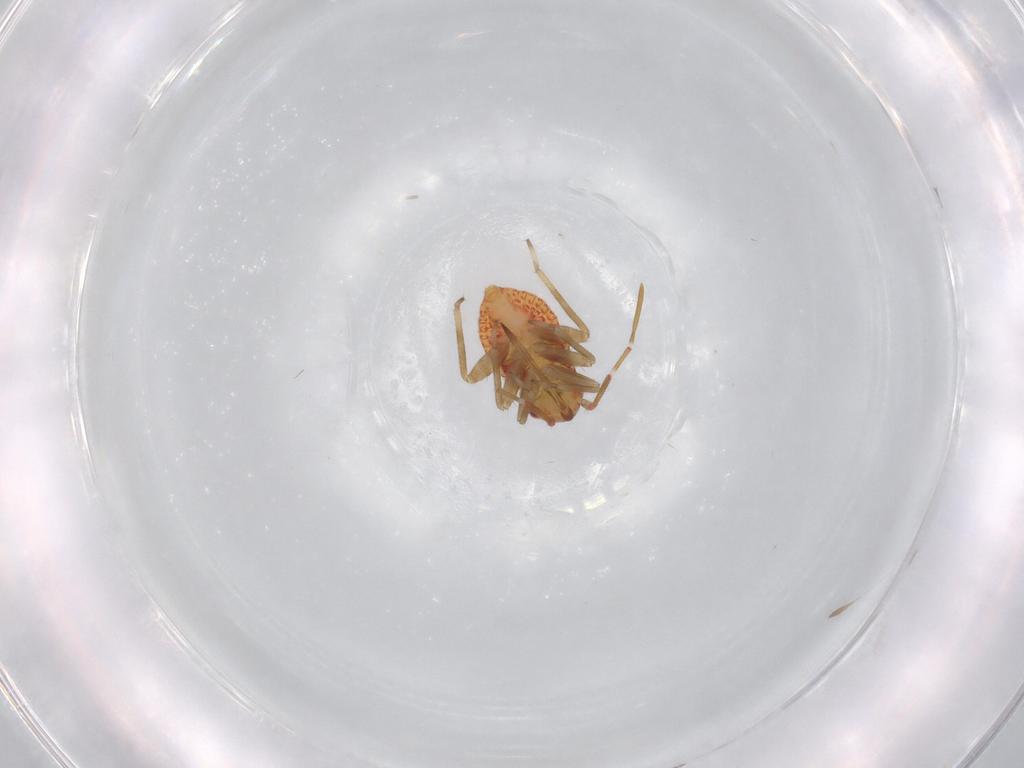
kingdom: Animalia
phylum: Arthropoda
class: Insecta
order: Hemiptera
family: Miridae
